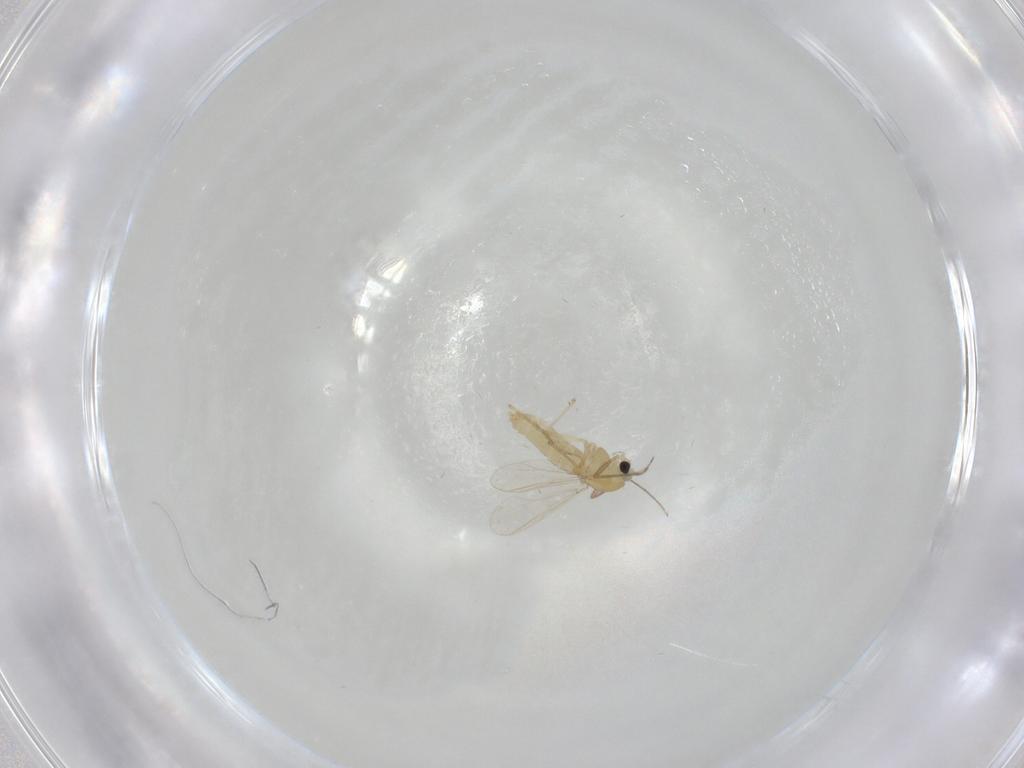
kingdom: Animalia
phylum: Arthropoda
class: Insecta
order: Diptera
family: Chironomidae
